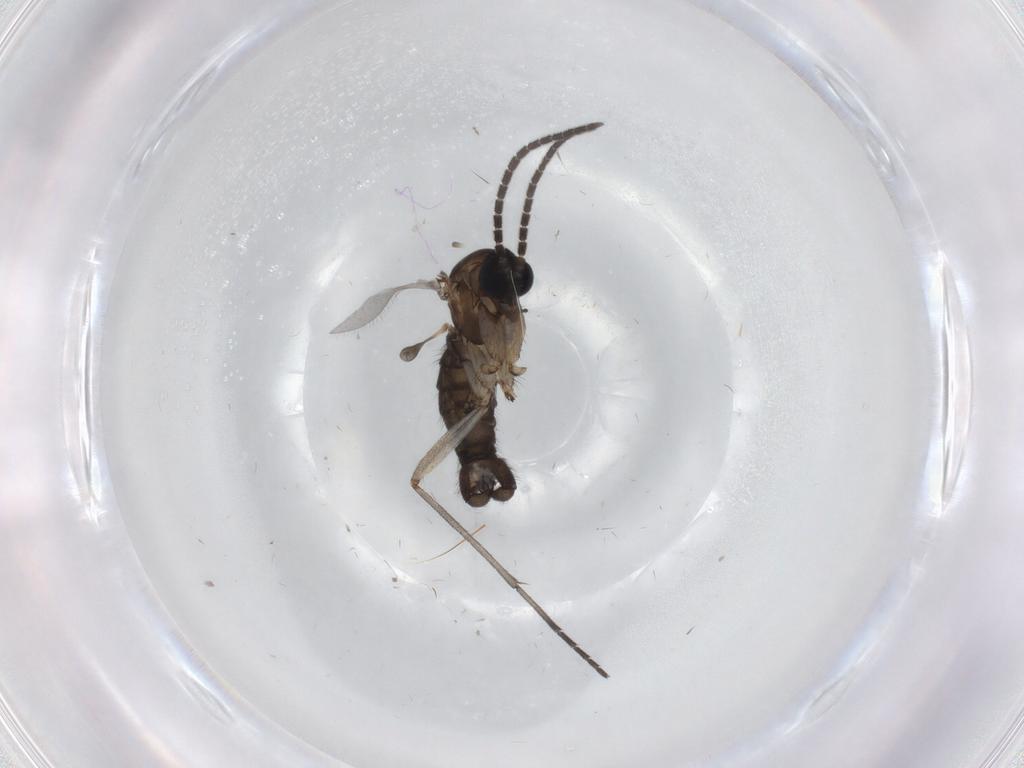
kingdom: Animalia
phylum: Arthropoda
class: Insecta
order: Diptera
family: Sciaridae
